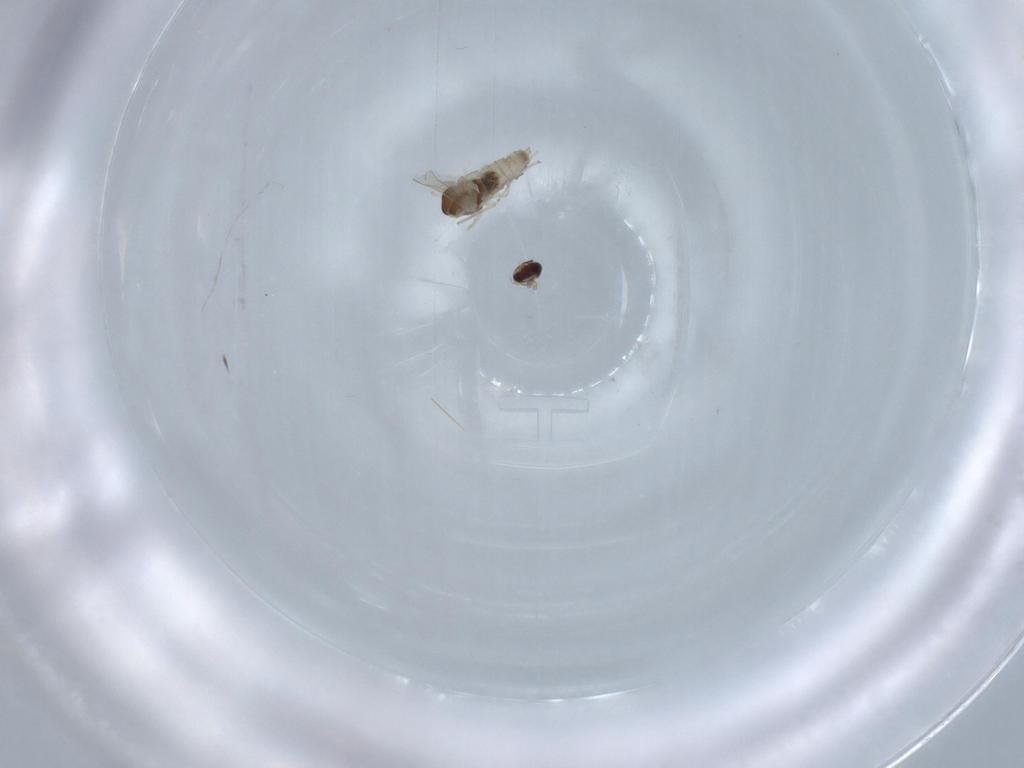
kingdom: Animalia
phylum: Arthropoda
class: Insecta
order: Diptera
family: Cecidomyiidae
